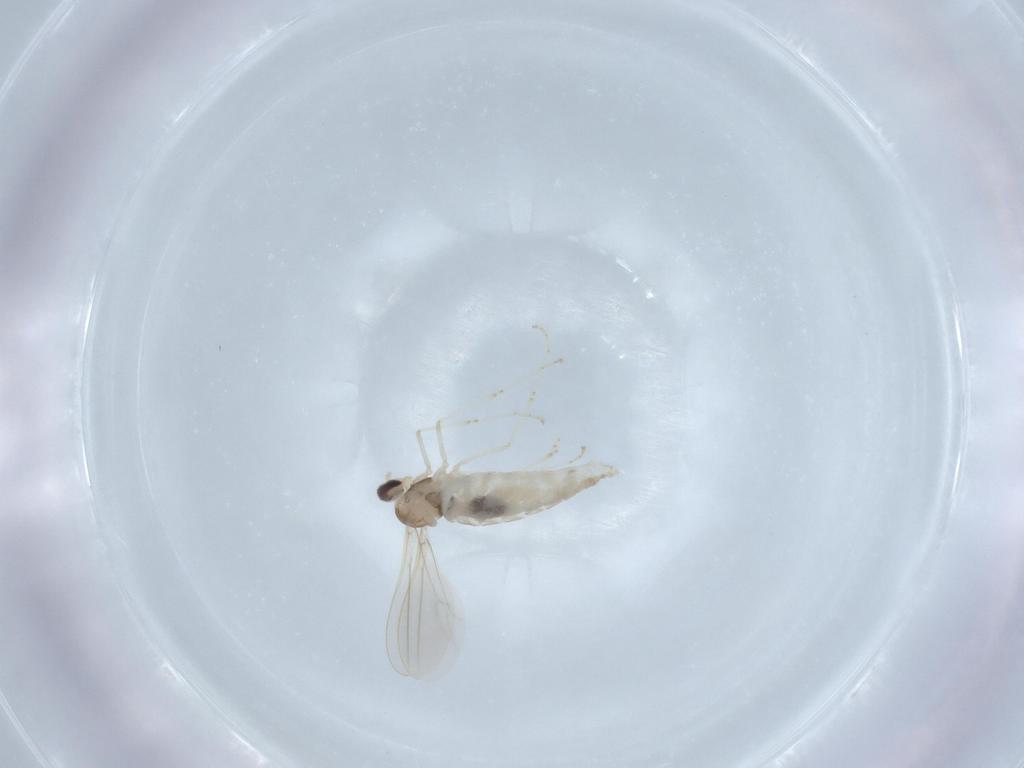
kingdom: Animalia
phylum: Arthropoda
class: Insecta
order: Diptera
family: Cecidomyiidae
